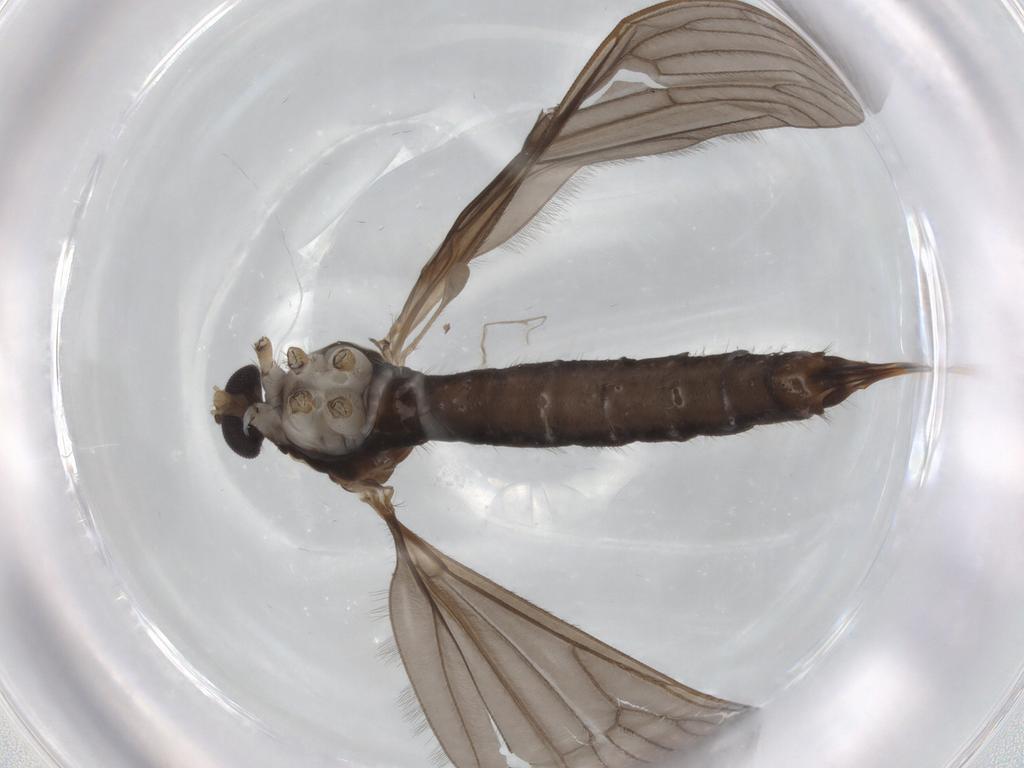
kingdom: Animalia
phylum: Arthropoda
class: Insecta
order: Diptera
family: Limoniidae
